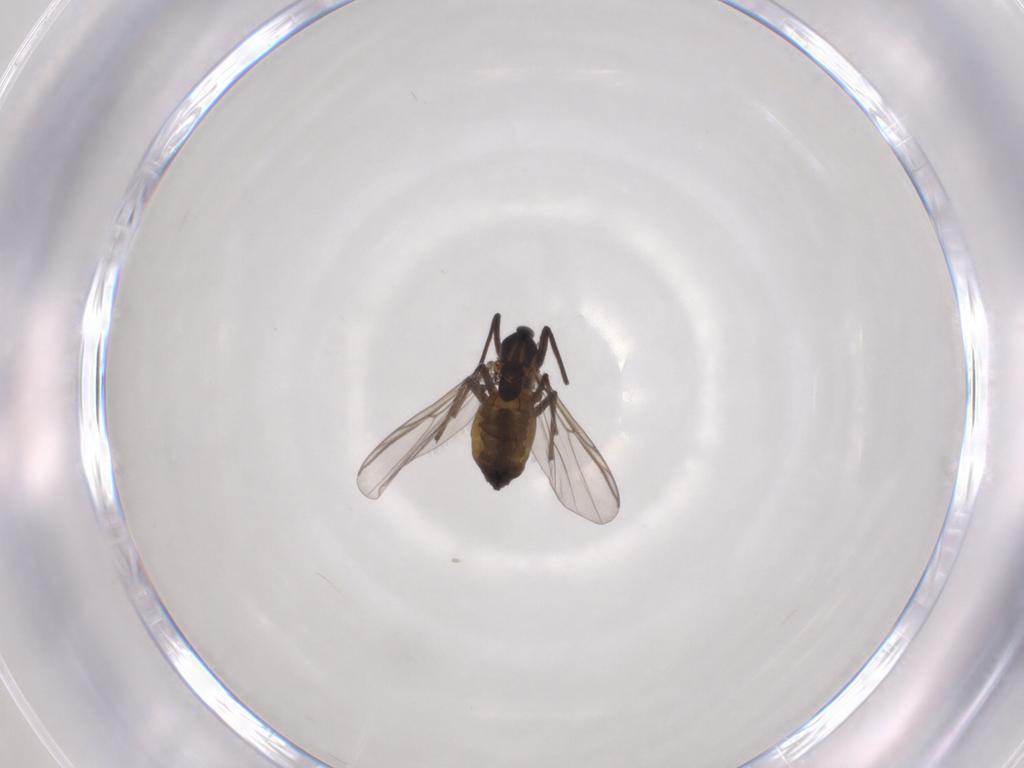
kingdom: Animalia
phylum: Arthropoda
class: Insecta
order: Diptera
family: Chironomidae
